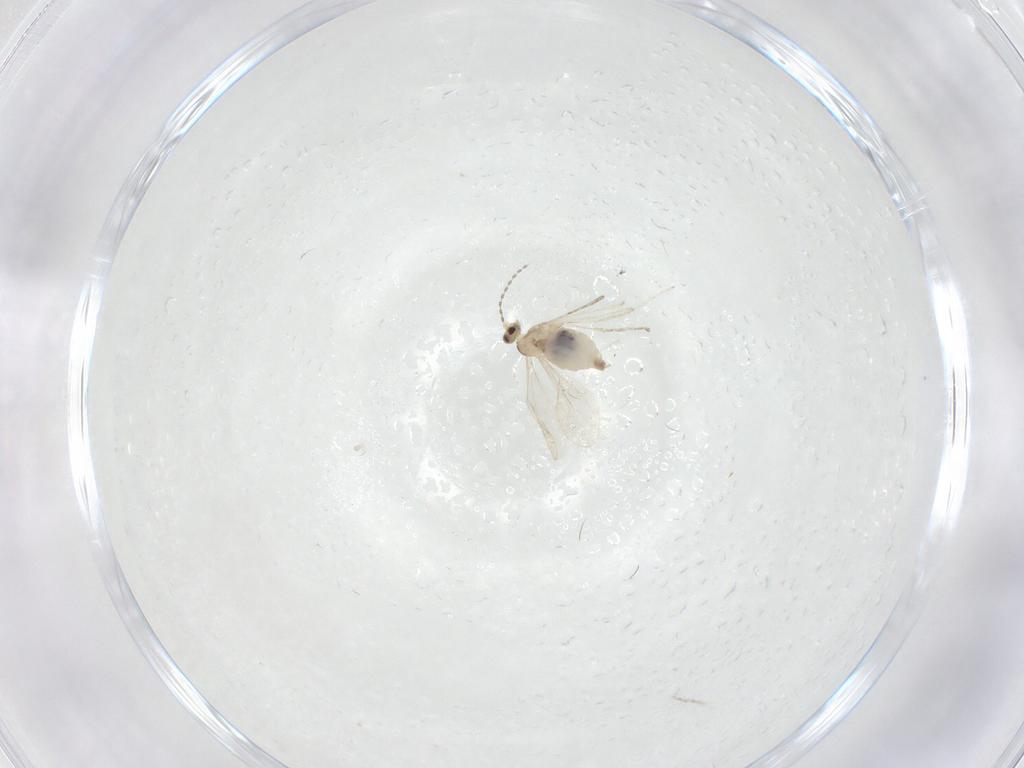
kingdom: Animalia
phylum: Arthropoda
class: Insecta
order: Diptera
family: Cecidomyiidae
